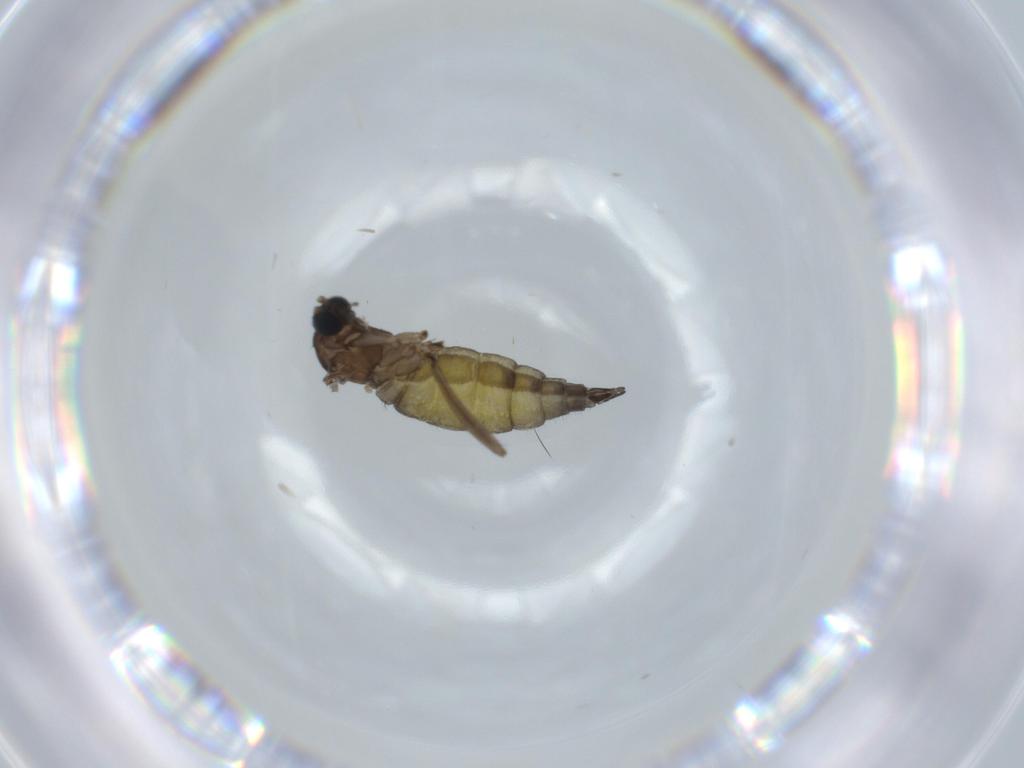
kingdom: Animalia
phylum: Arthropoda
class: Insecta
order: Diptera
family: Sciaridae
